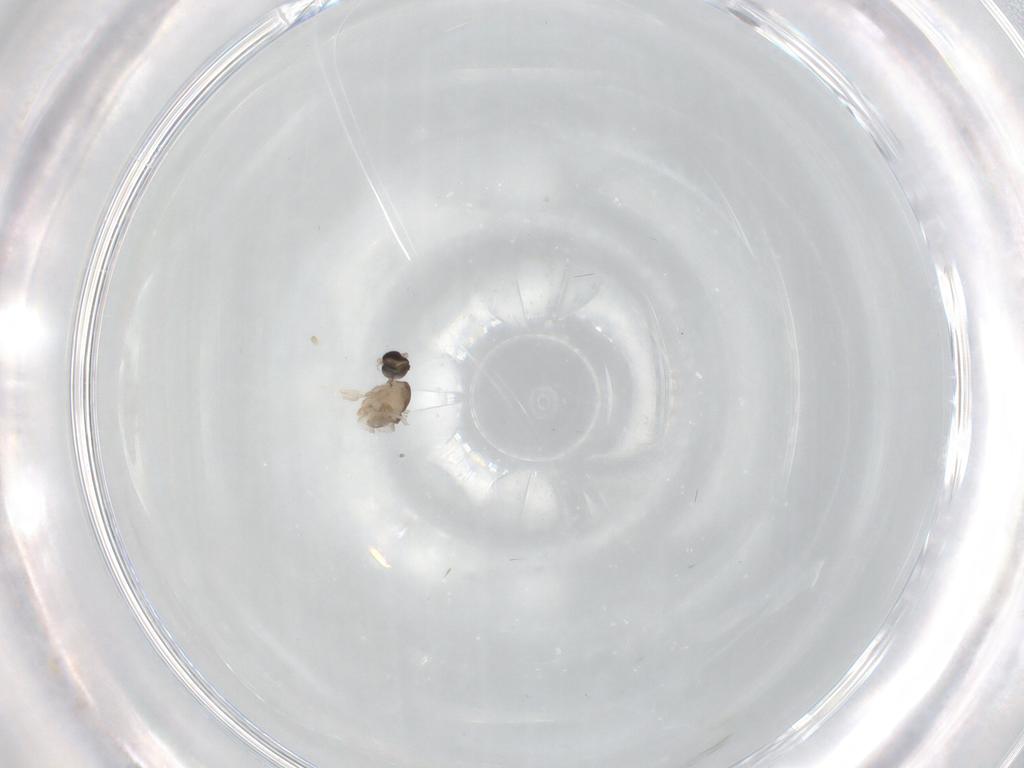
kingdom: Animalia
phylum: Arthropoda
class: Insecta
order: Diptera
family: Cecidomyiidae
